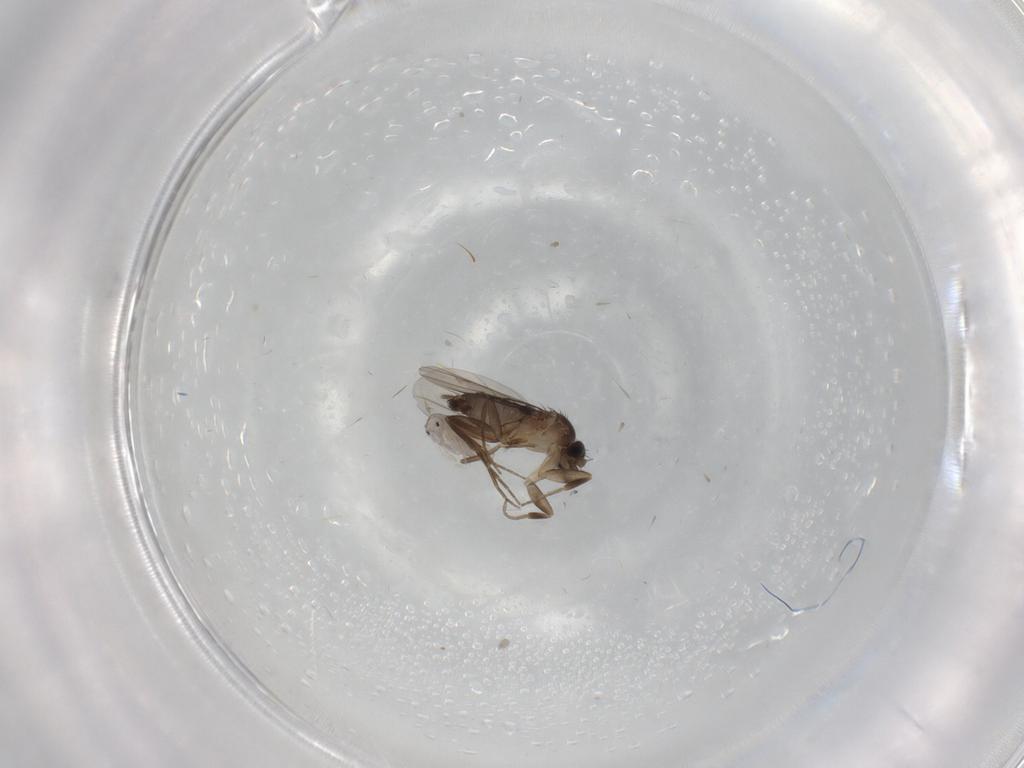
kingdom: Animalia
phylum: Arthropoda
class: Insecta
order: Diptera
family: Phoridae
